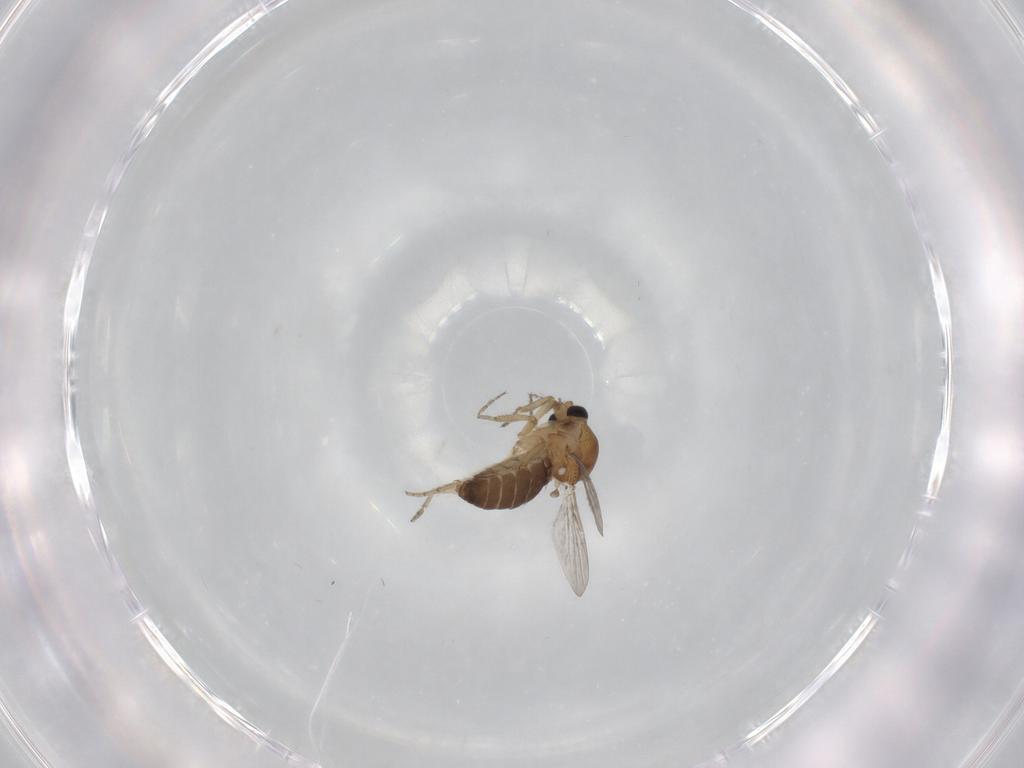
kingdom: Animalia
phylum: Arthropoda
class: Insecta
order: Diptera
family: Ceratopogonidae
